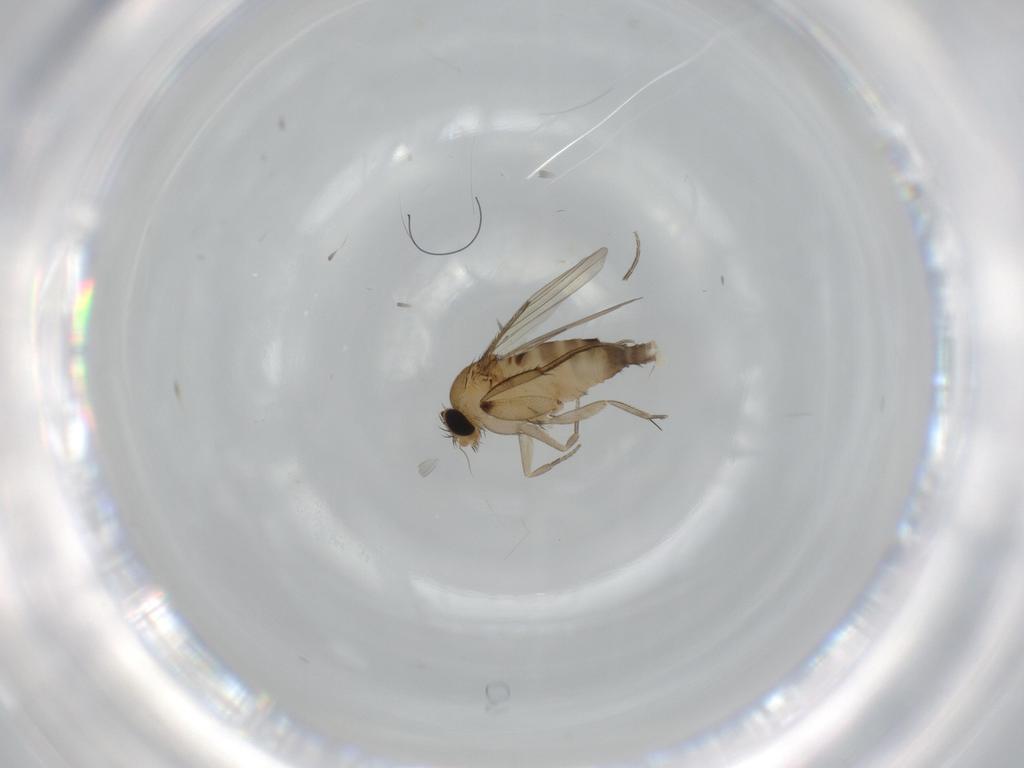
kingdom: Animalia
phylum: Arthropoda
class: Insecta
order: Diptera
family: Phoridae
